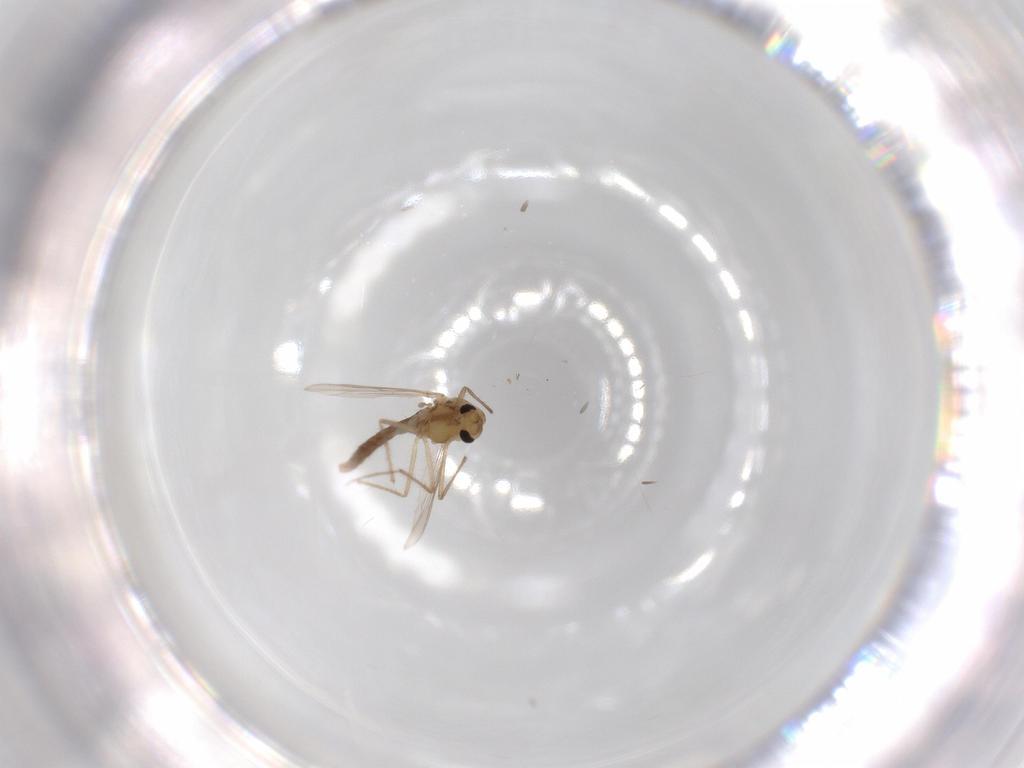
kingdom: Animalia
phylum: Arthropoda
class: Insecta
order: Diptera
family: Chironomidae
